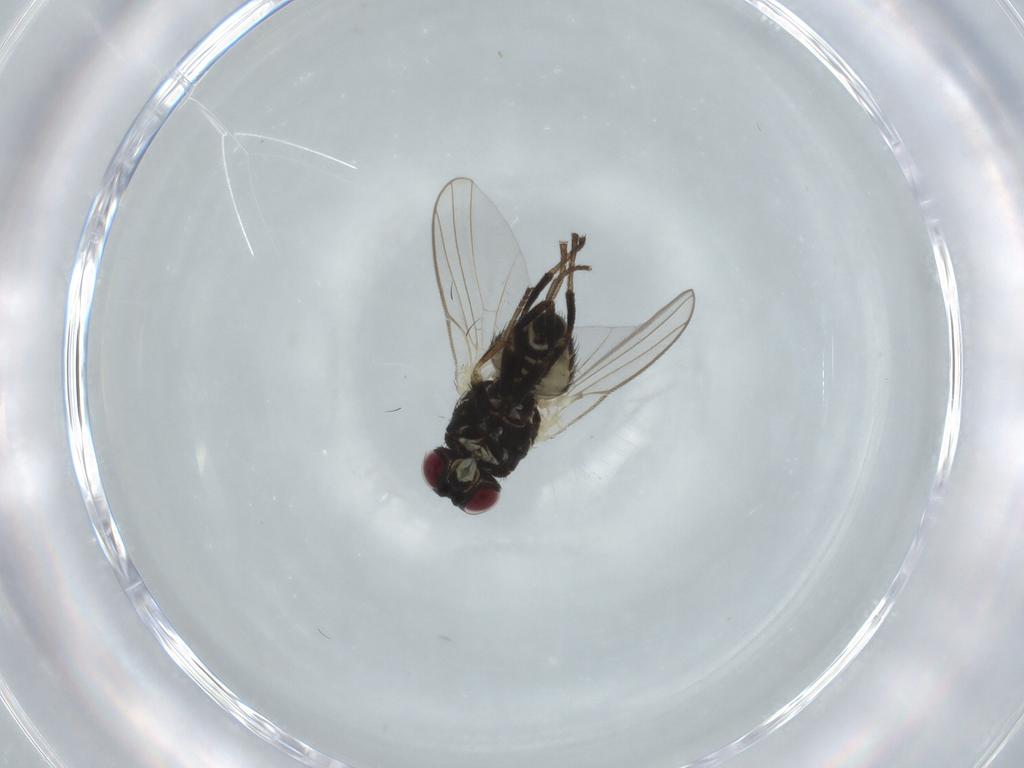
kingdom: Animalia
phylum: Arthropoda
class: Insecta
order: Diptera
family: Agromyzidae
